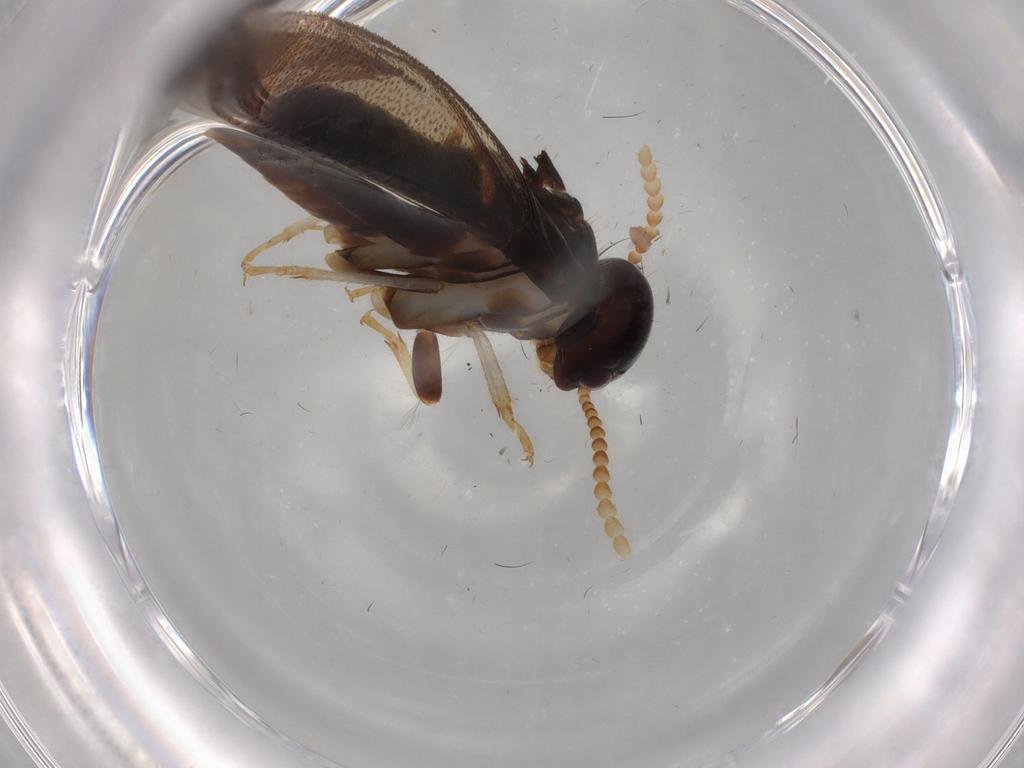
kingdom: Animalia
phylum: Arthropoda
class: Insecta
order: Blattodea
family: Kalotermitidae
